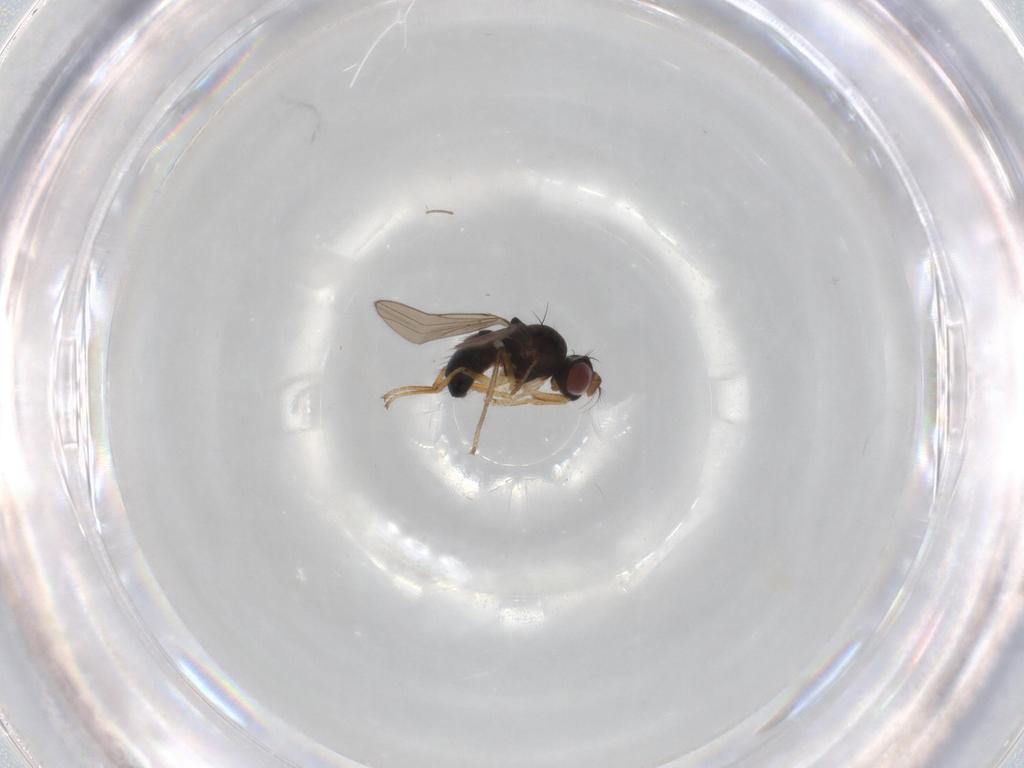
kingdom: Animalia
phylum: Arthropoda
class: Insecta
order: Diptera
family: Ephydridae
